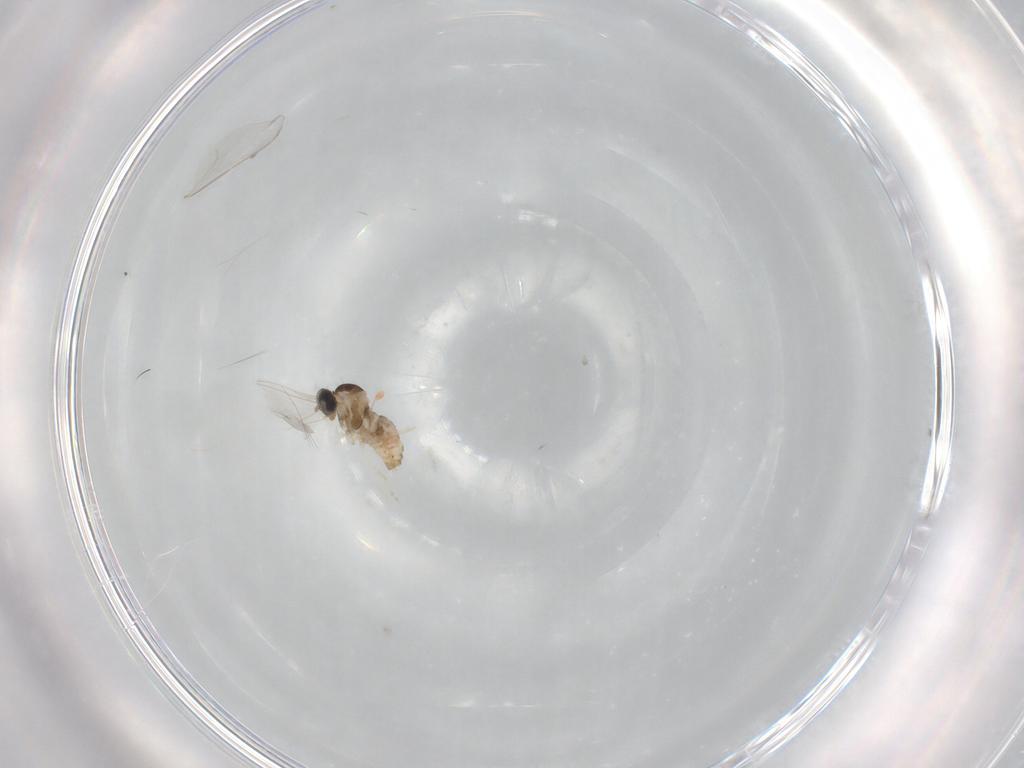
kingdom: Animalia
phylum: Arthropoda
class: Insecta
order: Diptera
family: Cecidomyiidae
